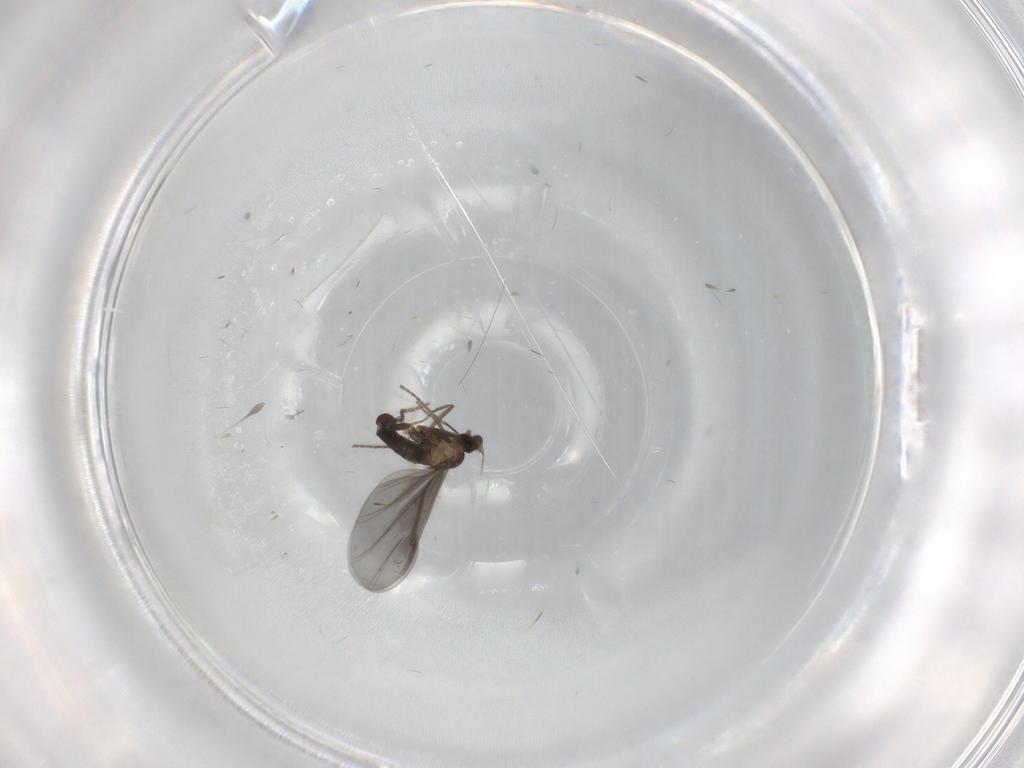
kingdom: Animalia
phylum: Arthropoda
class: Insecta
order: Diptera
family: Phoridae
